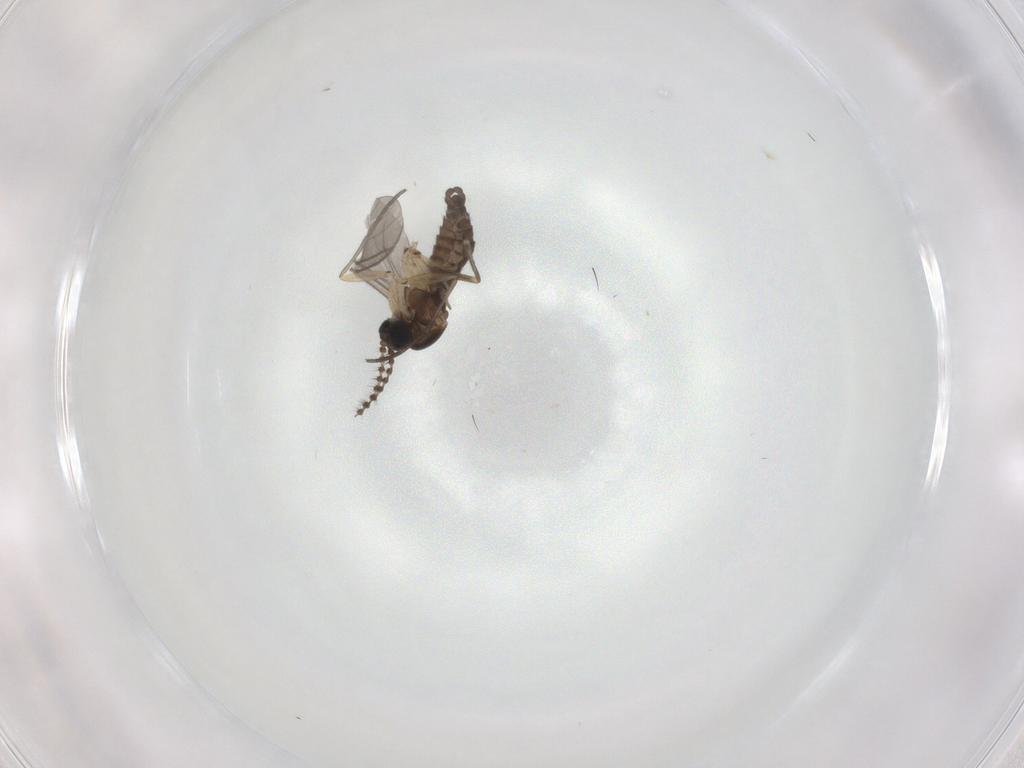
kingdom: Animalia
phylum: Arthropoda
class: Insecta
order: Diptera
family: Sciaridae
